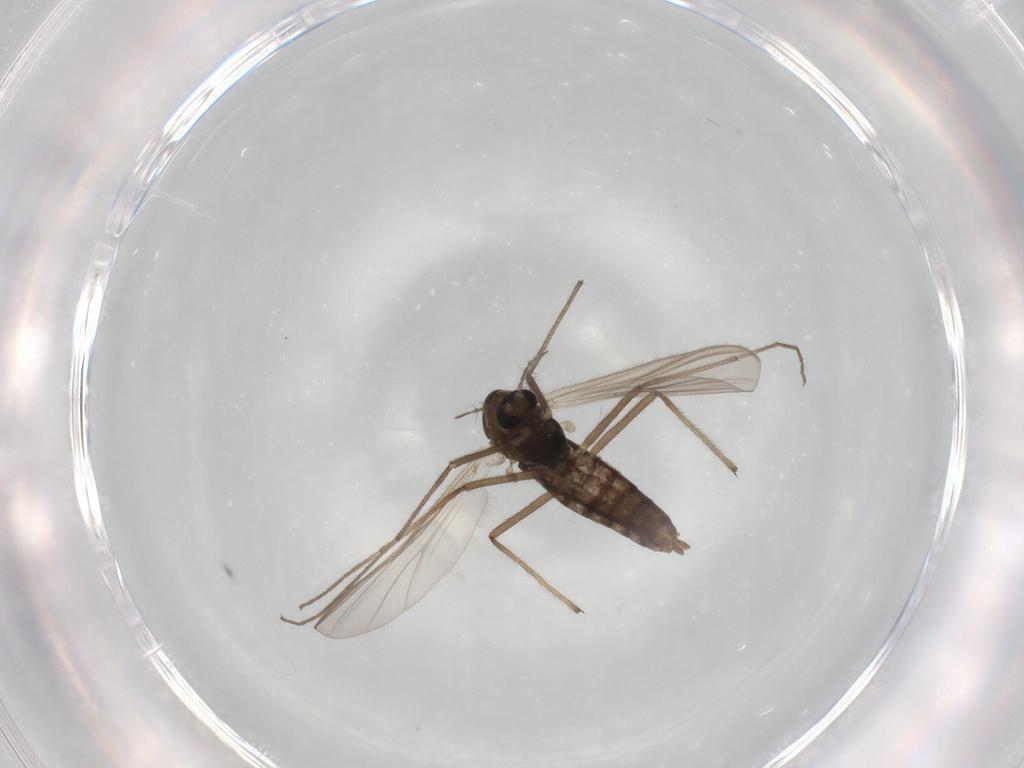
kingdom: Animalia
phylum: Arthropoda
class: Insecta
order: Diptera
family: Chironomidae
